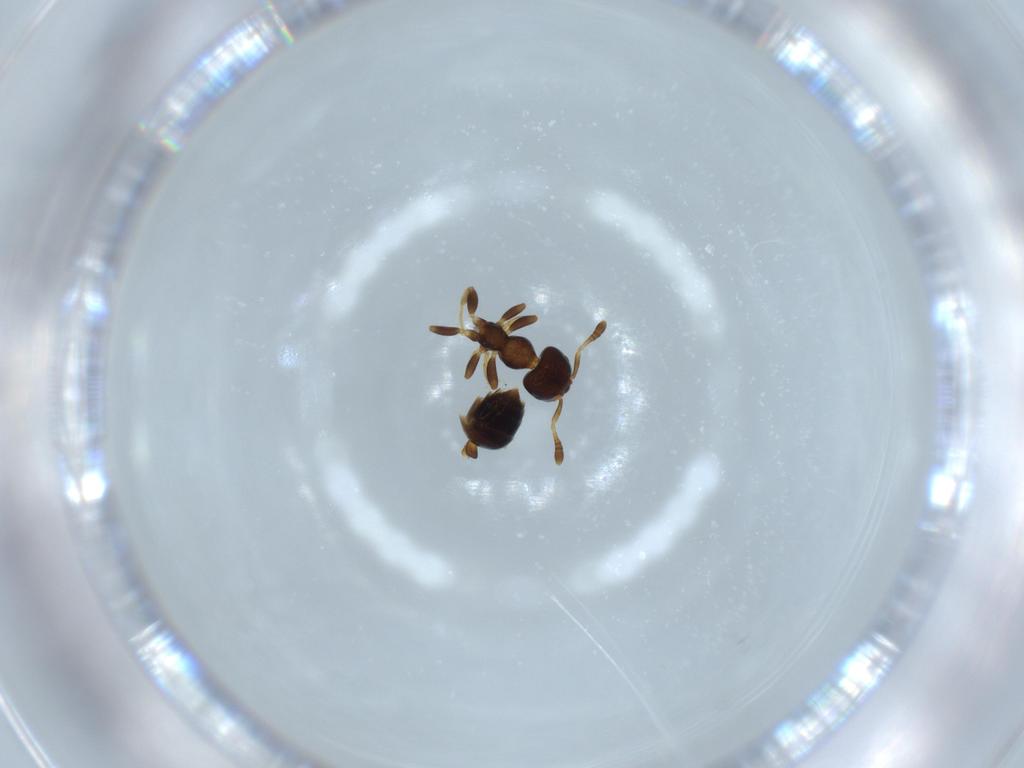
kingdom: Animalia
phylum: Arthropoda
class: Insecta
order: Hymenoptera
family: Formicidae
